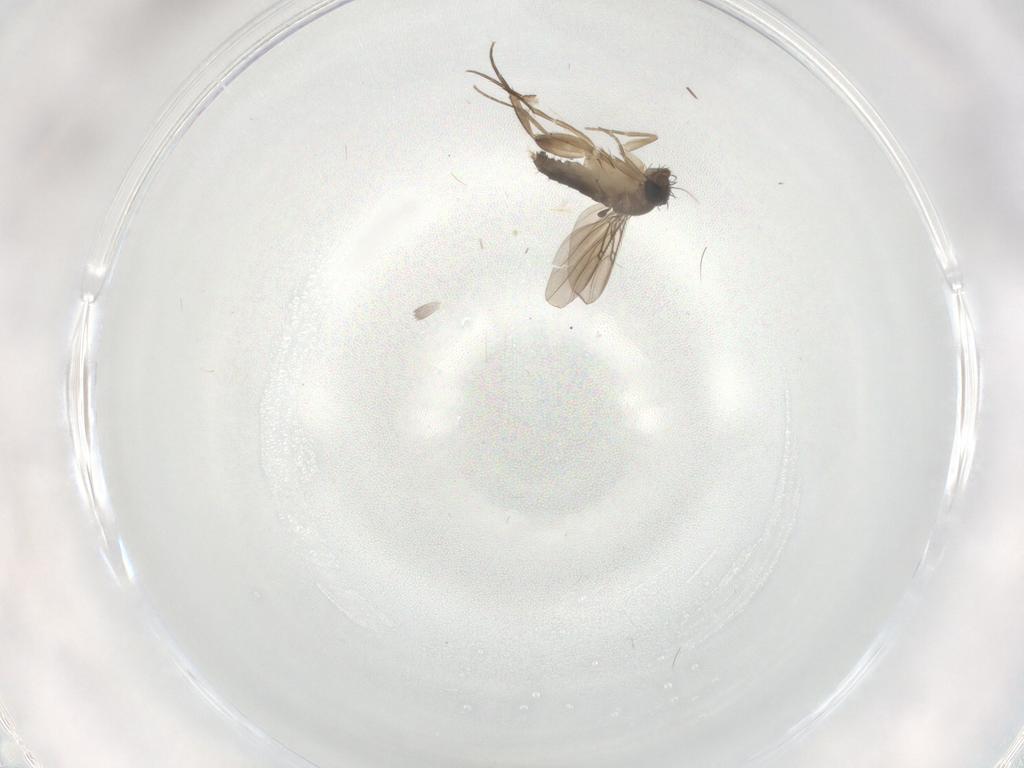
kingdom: Animalia
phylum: Arthropoda
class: Insecta
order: Diptera
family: Phoridae
